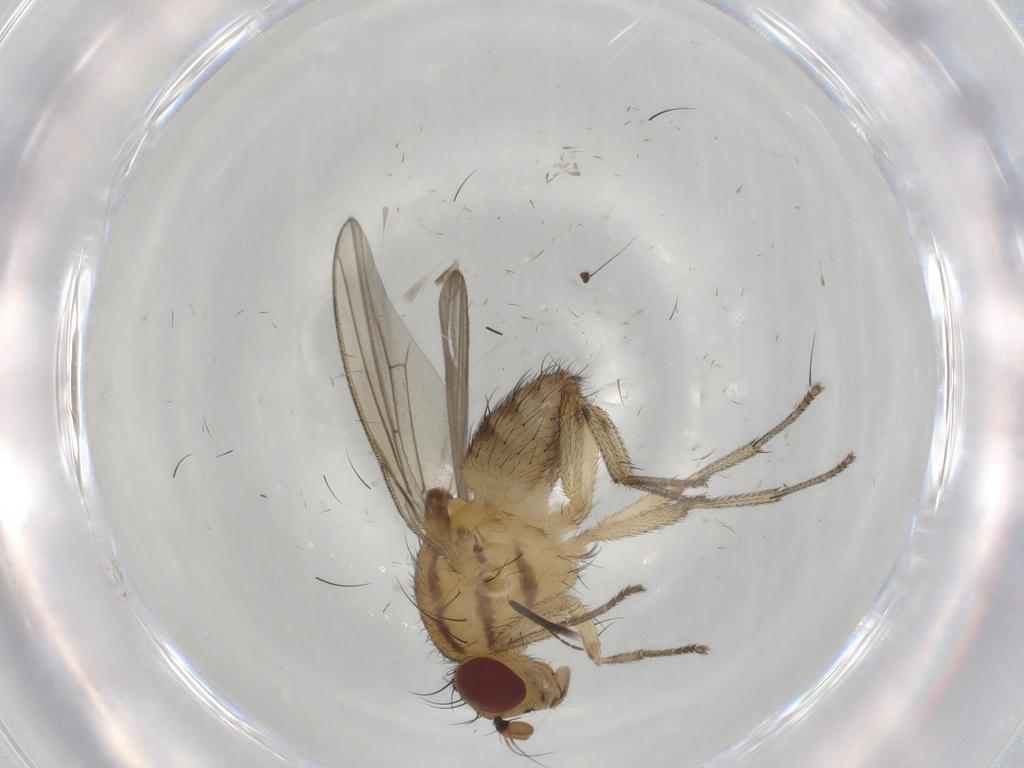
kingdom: Animalia
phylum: Arthropoda
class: Insecta
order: Diptera
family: Ceratopogonidae
